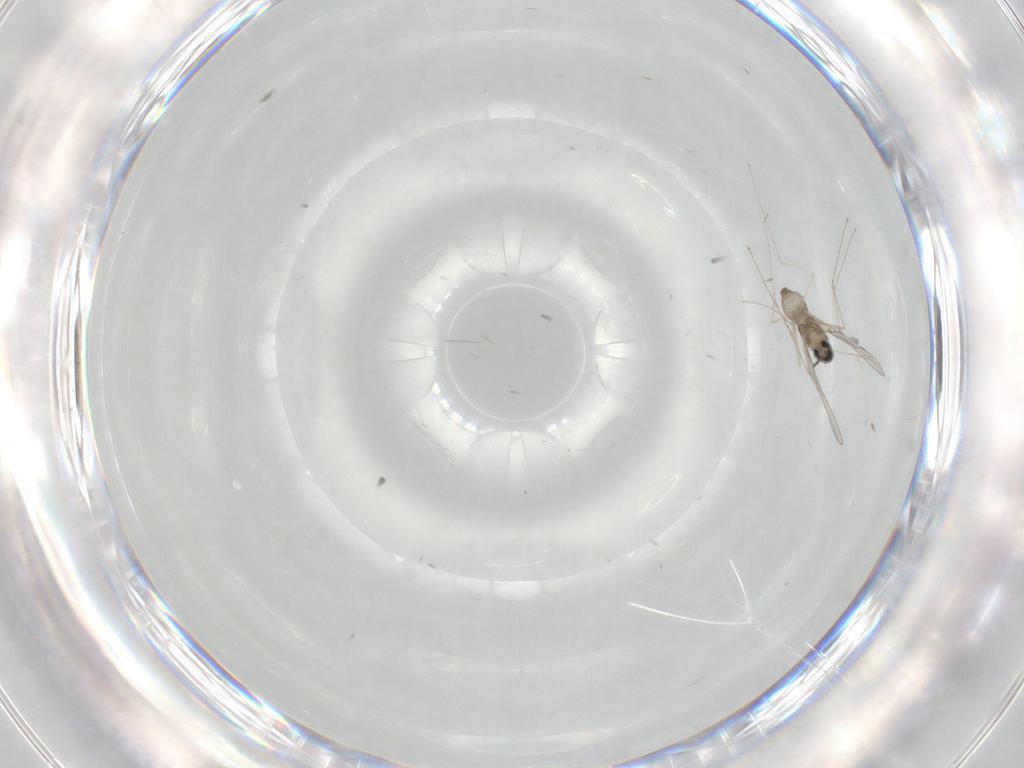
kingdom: Animalia
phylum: Arthropoda
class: Insecta
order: Diptera
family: Cecidomyiidae
